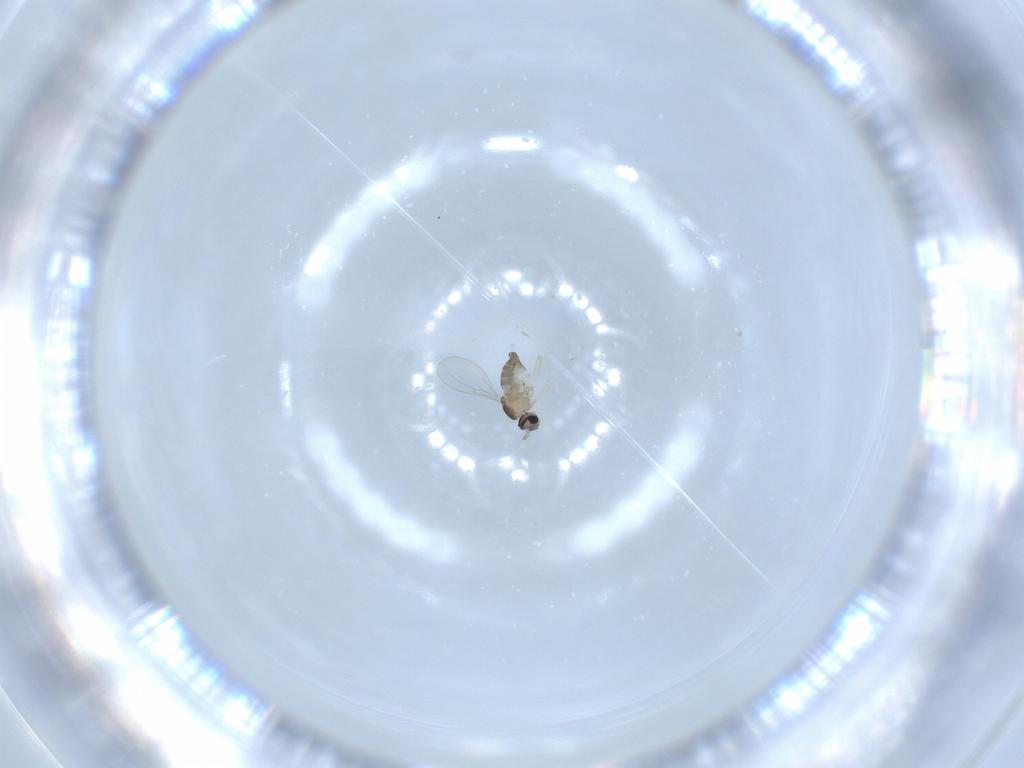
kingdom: Animalia
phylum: Arthropoda
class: Insecta
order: Diptera
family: Cecidomyiidae
